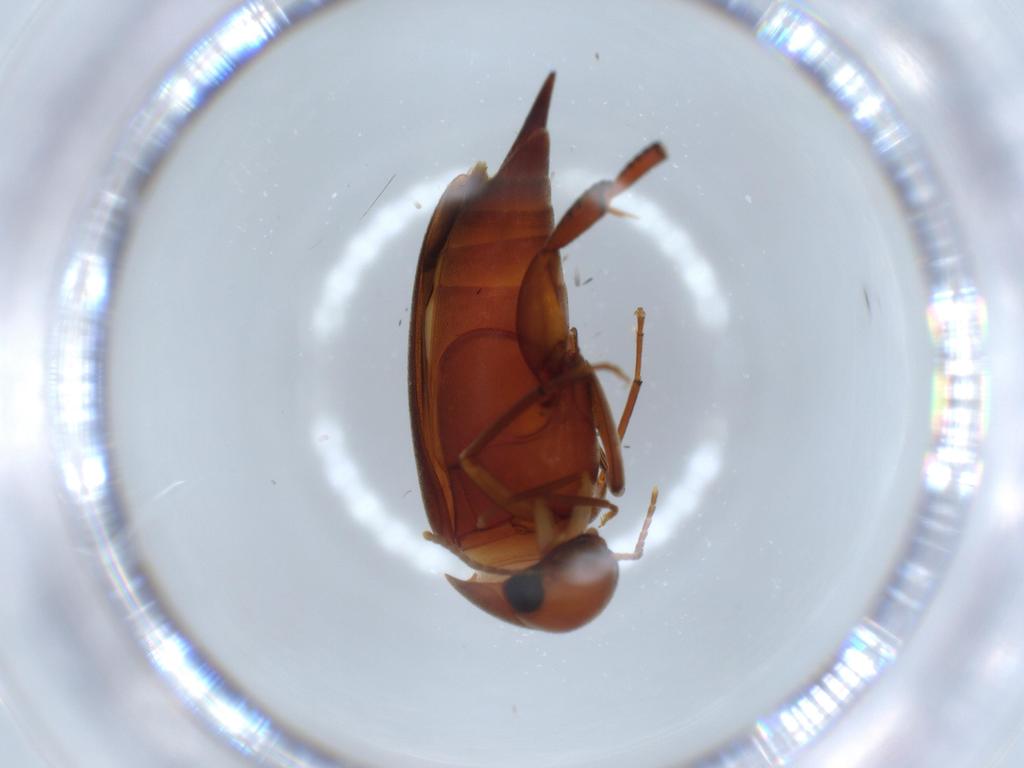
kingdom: Animalia
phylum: Arthropoda
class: Insecta
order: Coleoptera
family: Mordellidae
